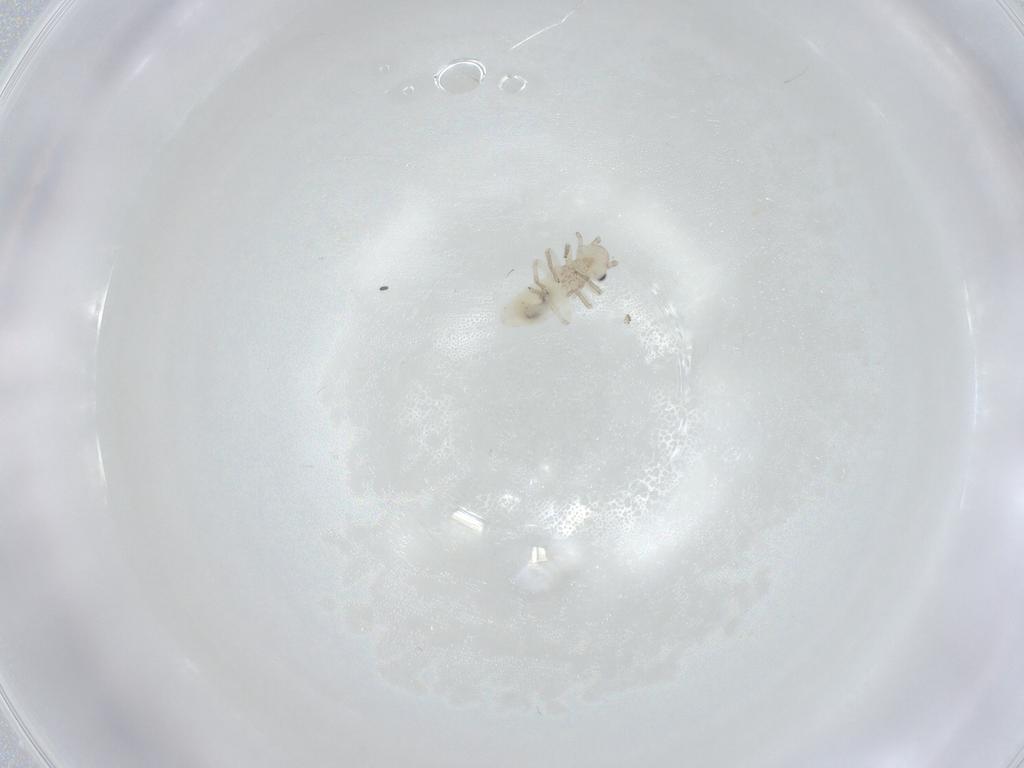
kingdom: Animalia
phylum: Arthropoda
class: Insecta
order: Psocodea
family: Caeciliusidae
